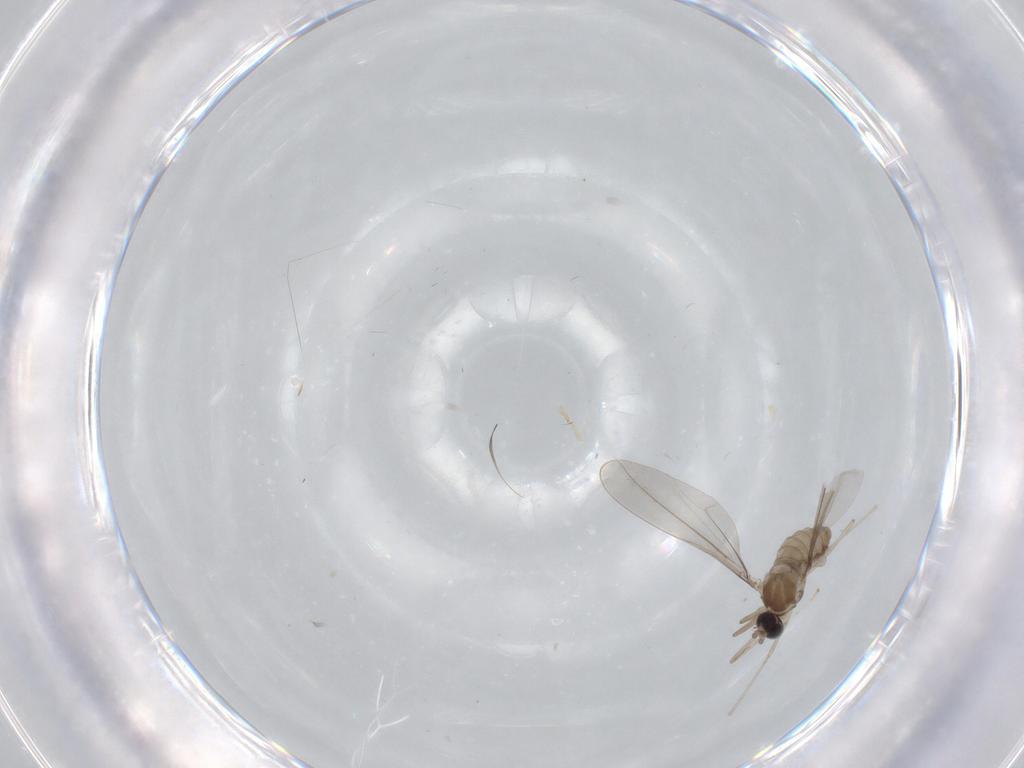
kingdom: Animalia
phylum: Arthropoda
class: Insecta
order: Diptera
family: Cecidomyiidae
